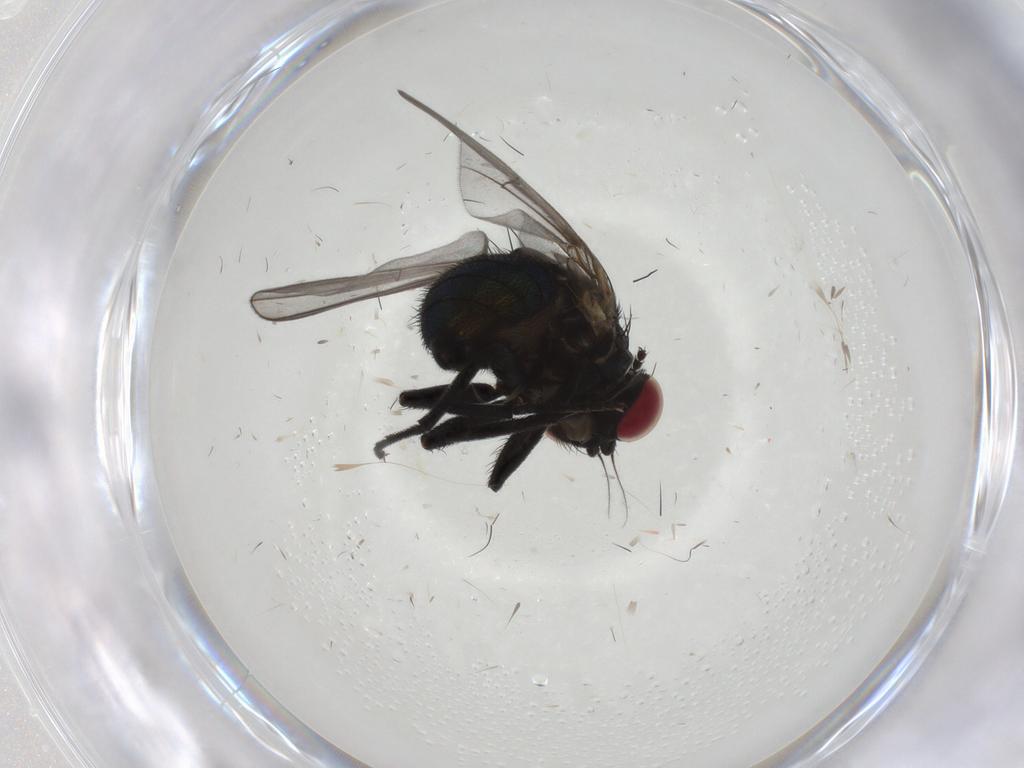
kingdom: Animalia
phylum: Arthropoda
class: Insecta
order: Diptera
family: Agromyzidae
